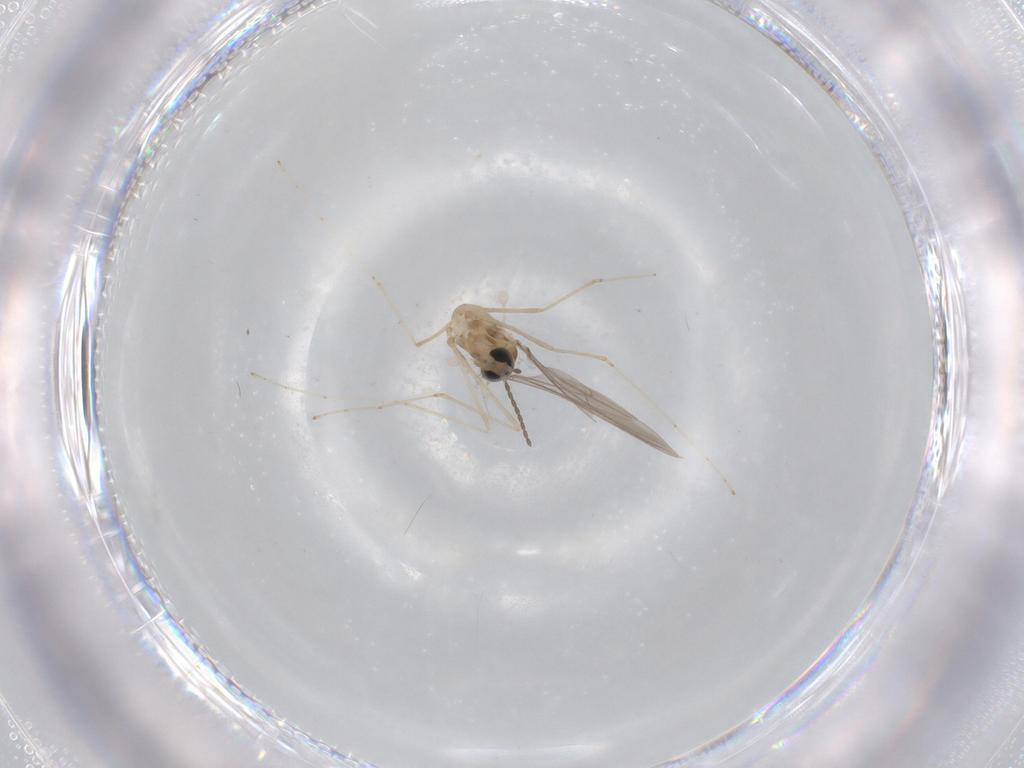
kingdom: Animalia
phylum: Arthropoda
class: Insecta
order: Diptera
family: Cecidomyiidae
